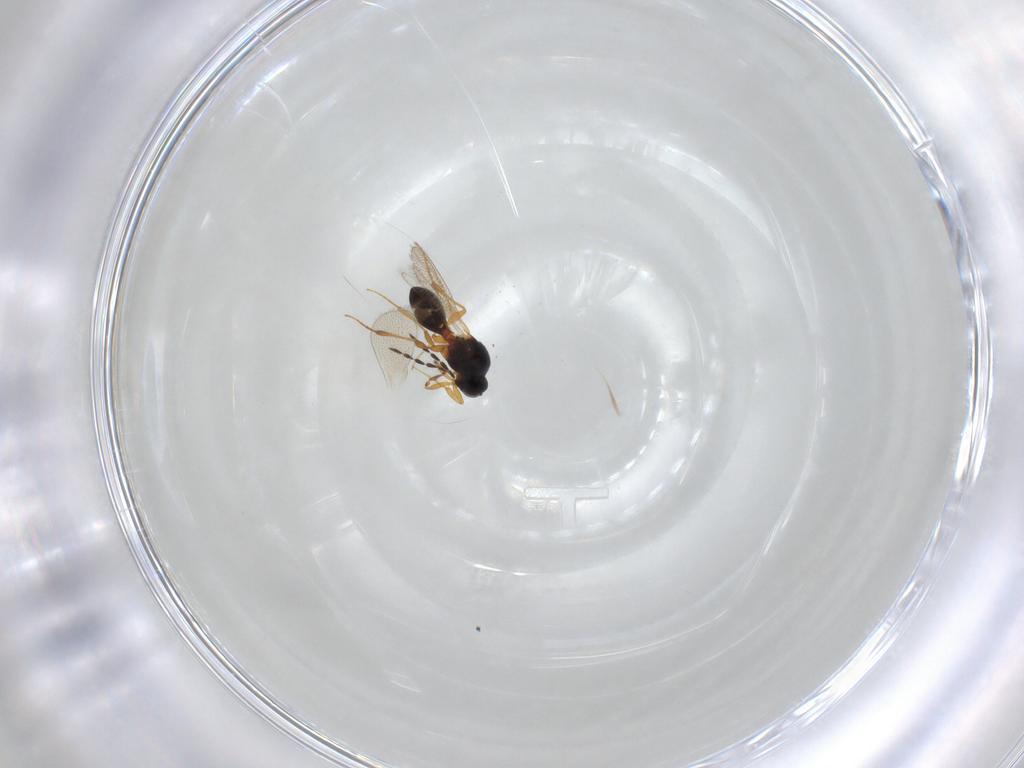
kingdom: Animalia
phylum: Arthropoda
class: Insecta
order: Hymenoptera
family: Platygastridae
